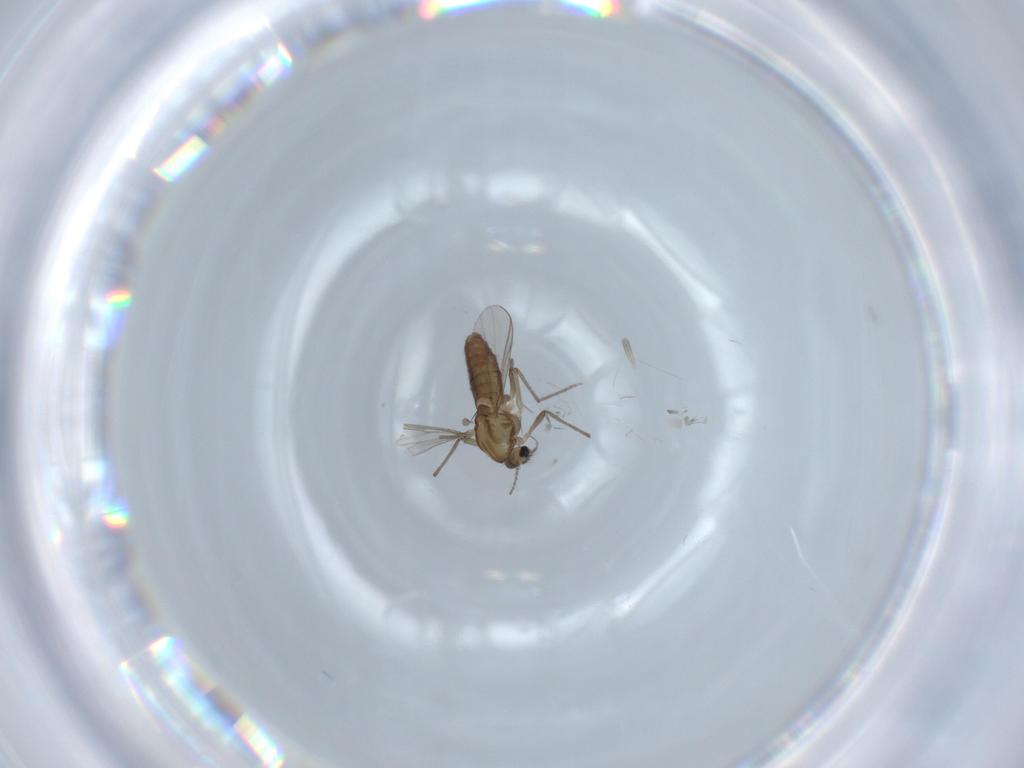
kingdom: Animalia
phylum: Arthropoda
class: Insecta
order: Diptera
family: Chironomidae
